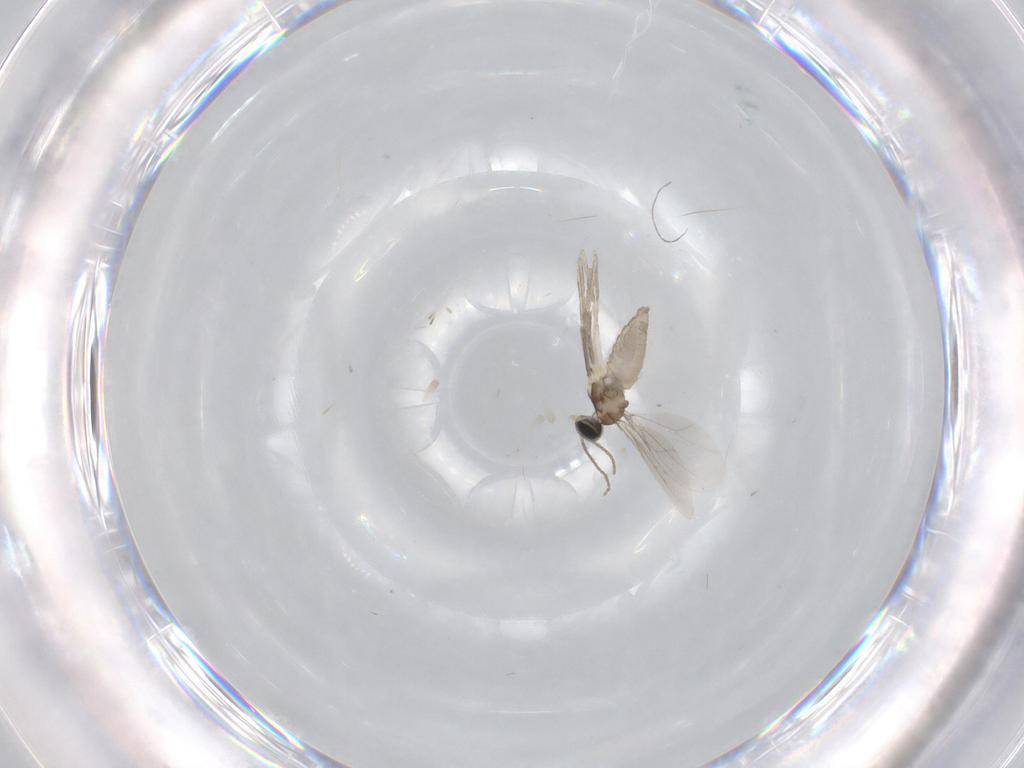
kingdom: Animalia
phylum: Arthropoda
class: Insecta
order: Diptera
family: Cecidomyiidae
